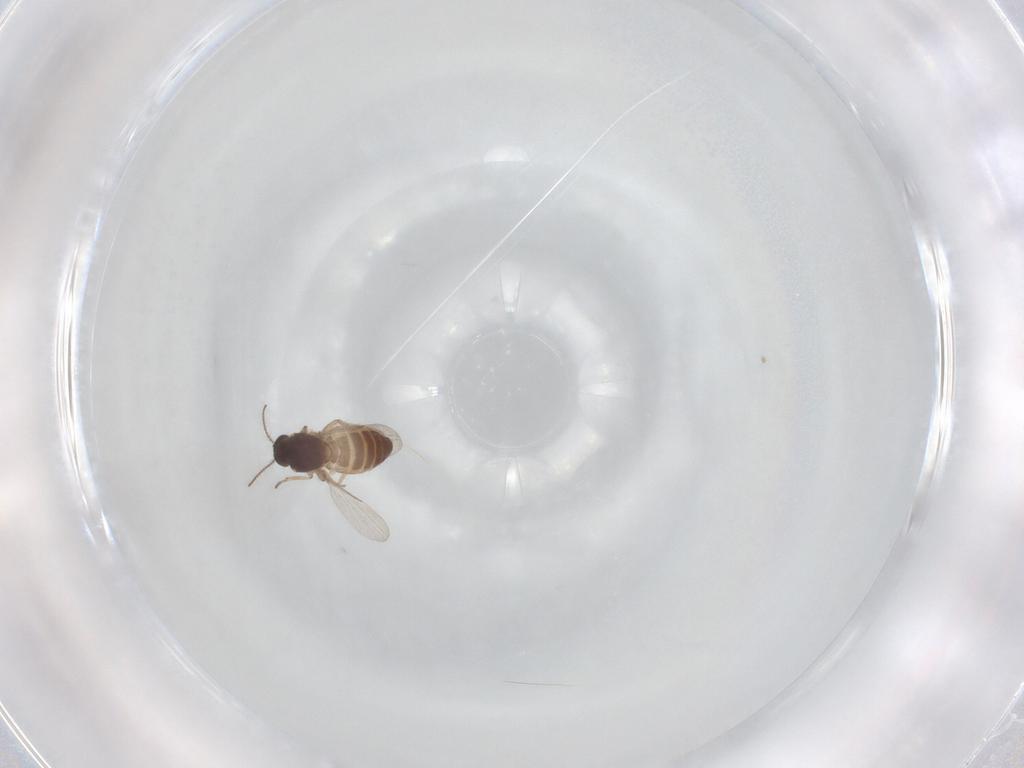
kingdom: Animalia
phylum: Arthropoda
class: Insecta
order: Diptera
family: Ceratopogonidae
